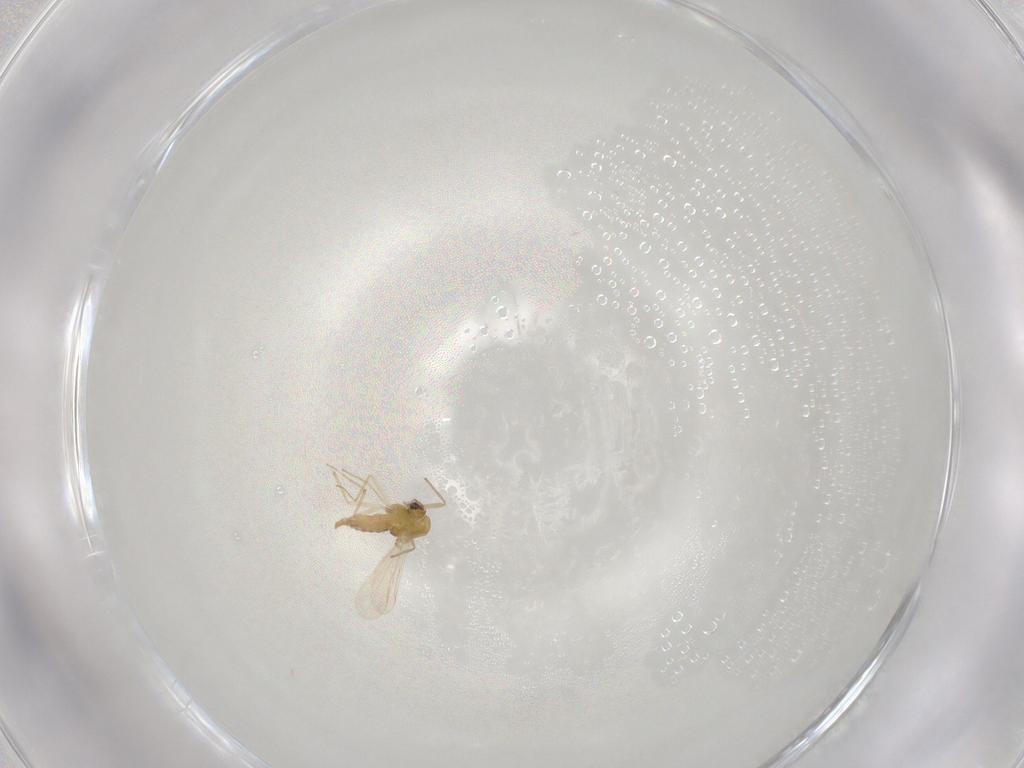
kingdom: Animalia
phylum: Arthropoda
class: Insecta
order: Diptera
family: Chironomidae
